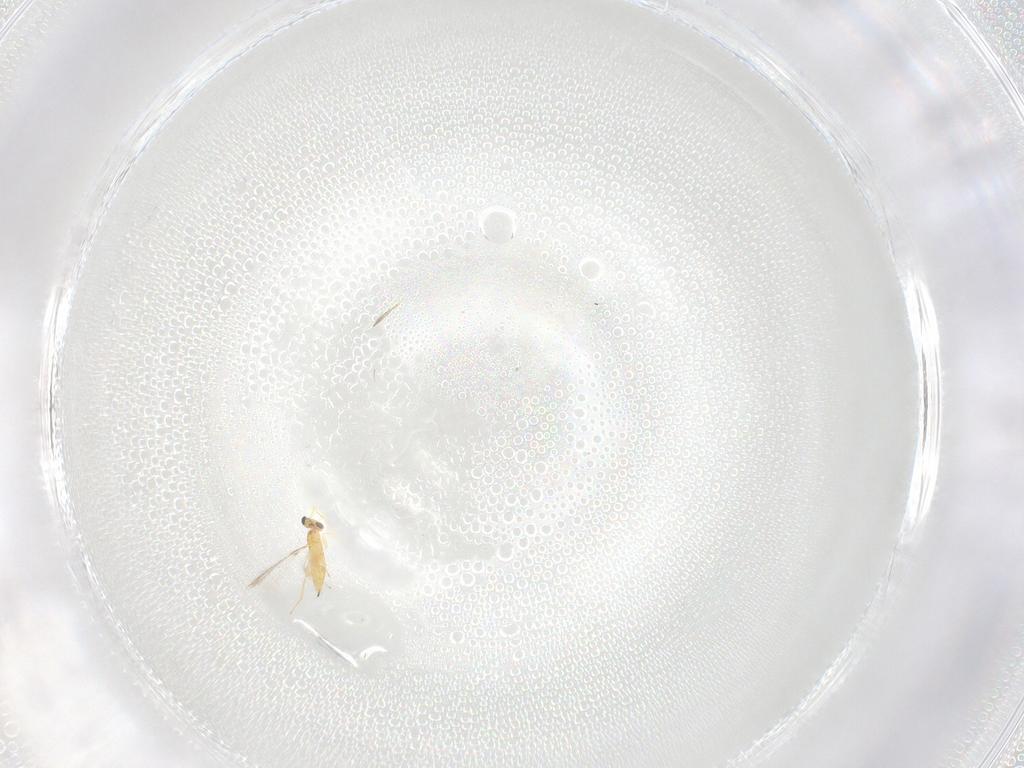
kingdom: Animalia
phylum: Arthropoda
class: Insecta
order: Hymenoptera
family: Mymaridae
